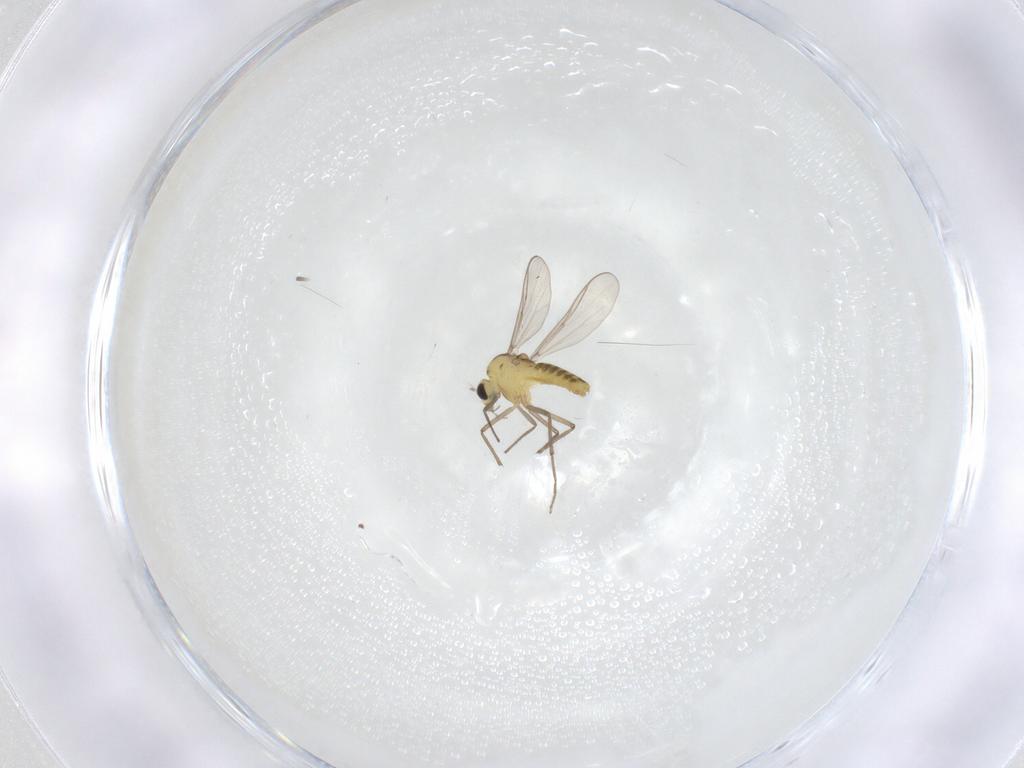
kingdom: Animalia
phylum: Arthropoda
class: Insecta
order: Diptera
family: Chironomidae
